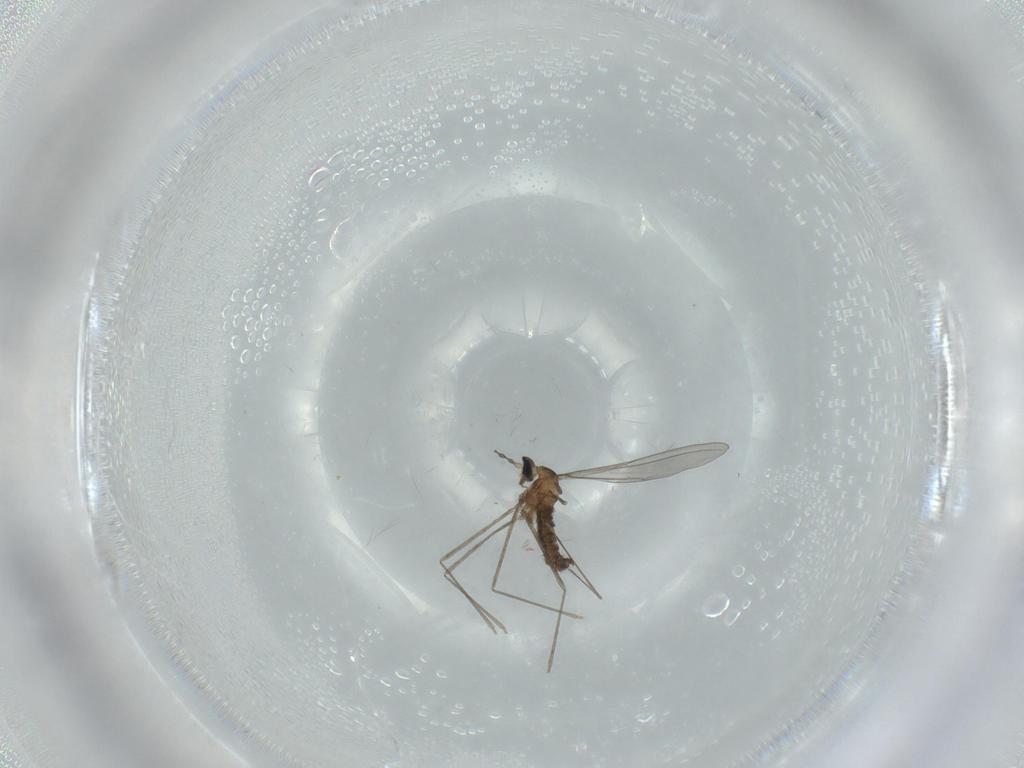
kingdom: Animalia
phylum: Arthropoda
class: Insecta
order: Diptera
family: Cecidomyiidae
